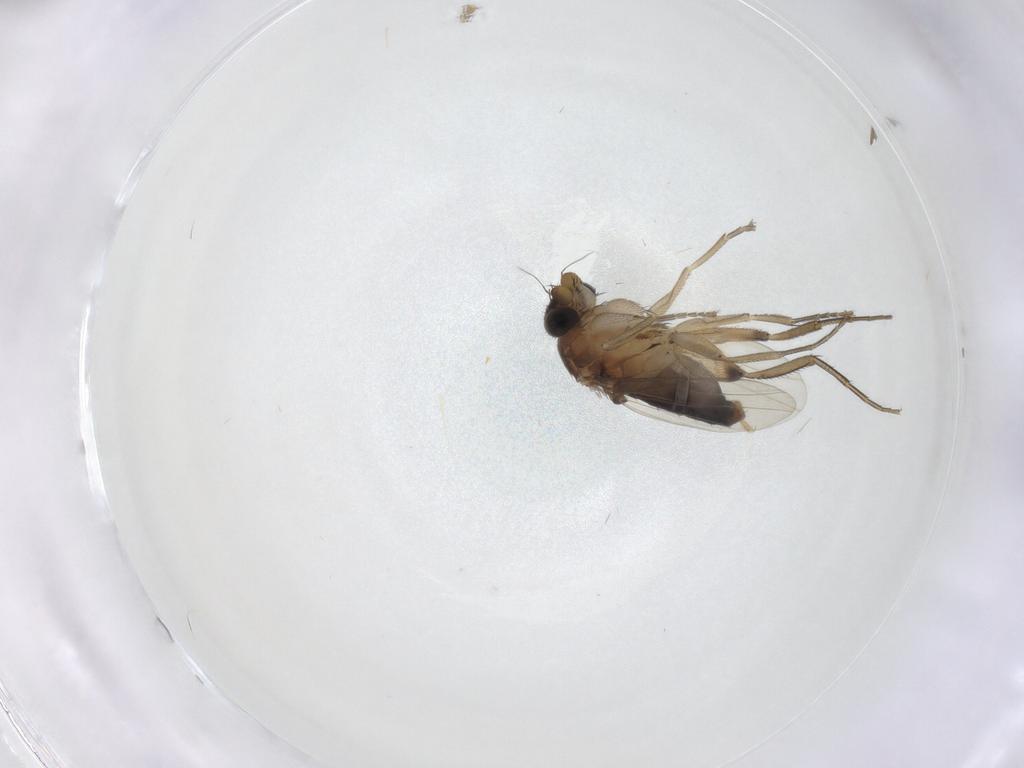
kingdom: Animalia
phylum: Arthropoda
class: Insecta
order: Diptera
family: Phoridae
